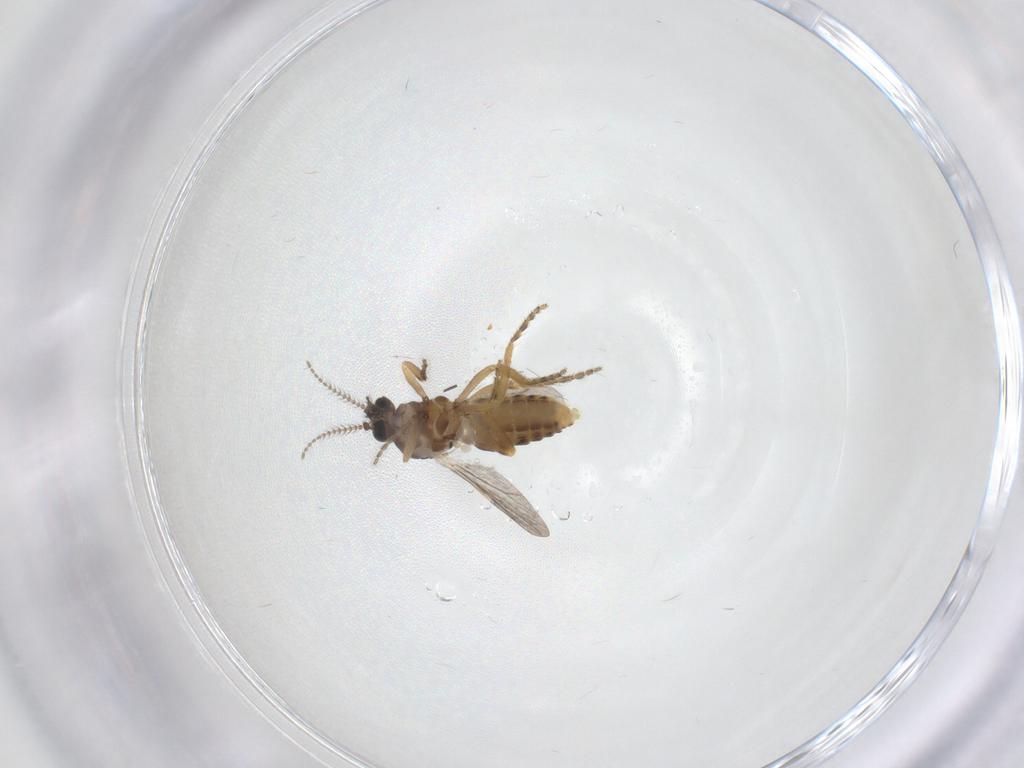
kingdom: Animalia
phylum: Arthropoda
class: Insecta
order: Diptera
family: Ceratopogonidae
